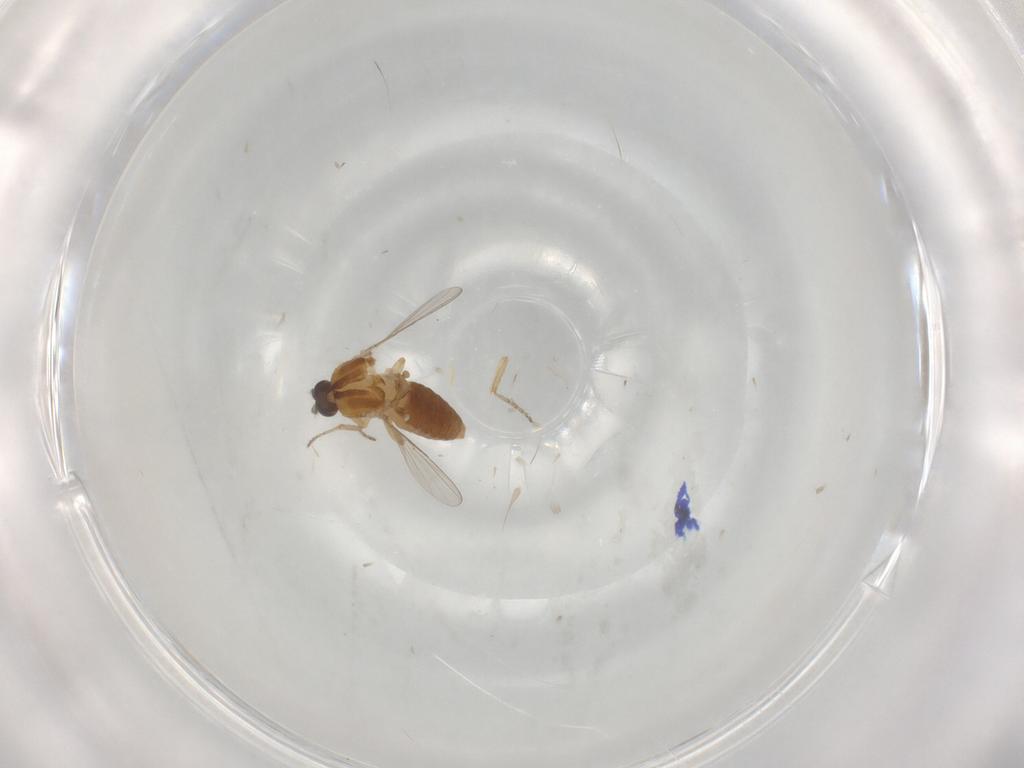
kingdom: Animalia
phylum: Arthropoda
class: Insecta
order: Diptera
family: Ceratopogonidae
